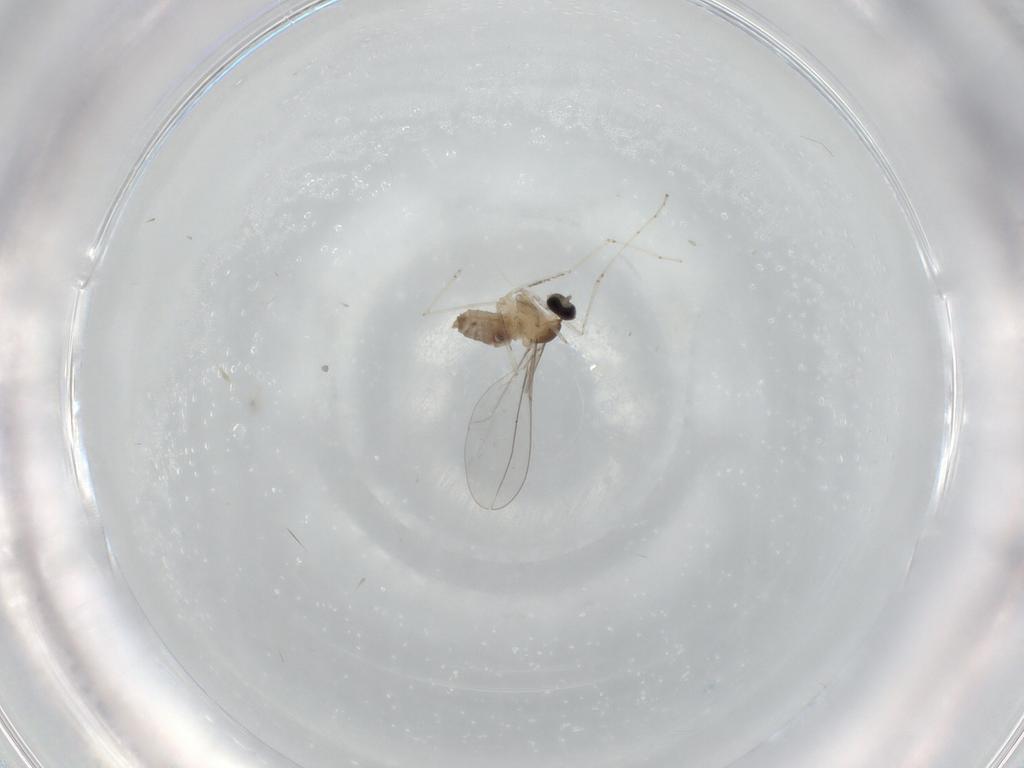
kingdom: Animalia
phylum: Arthropoda
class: Insecta
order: Diptera
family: Cecidomyiidae
